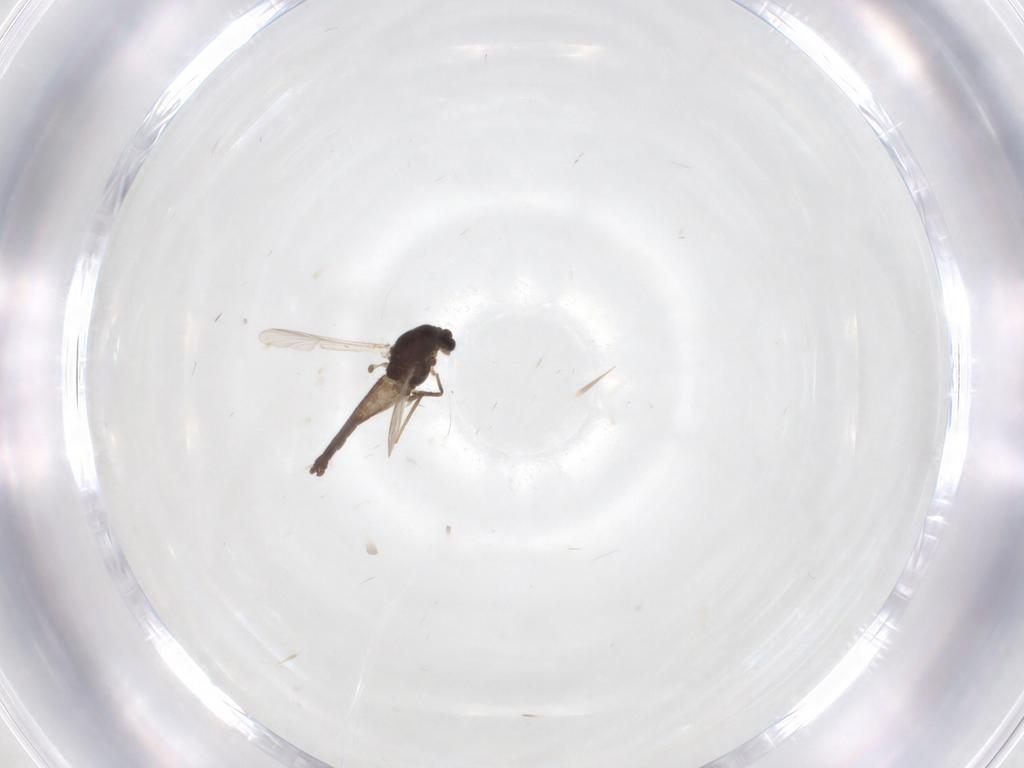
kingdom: Animalia
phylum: Arthropoda
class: Insecta
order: Diptera
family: Chironomidae
